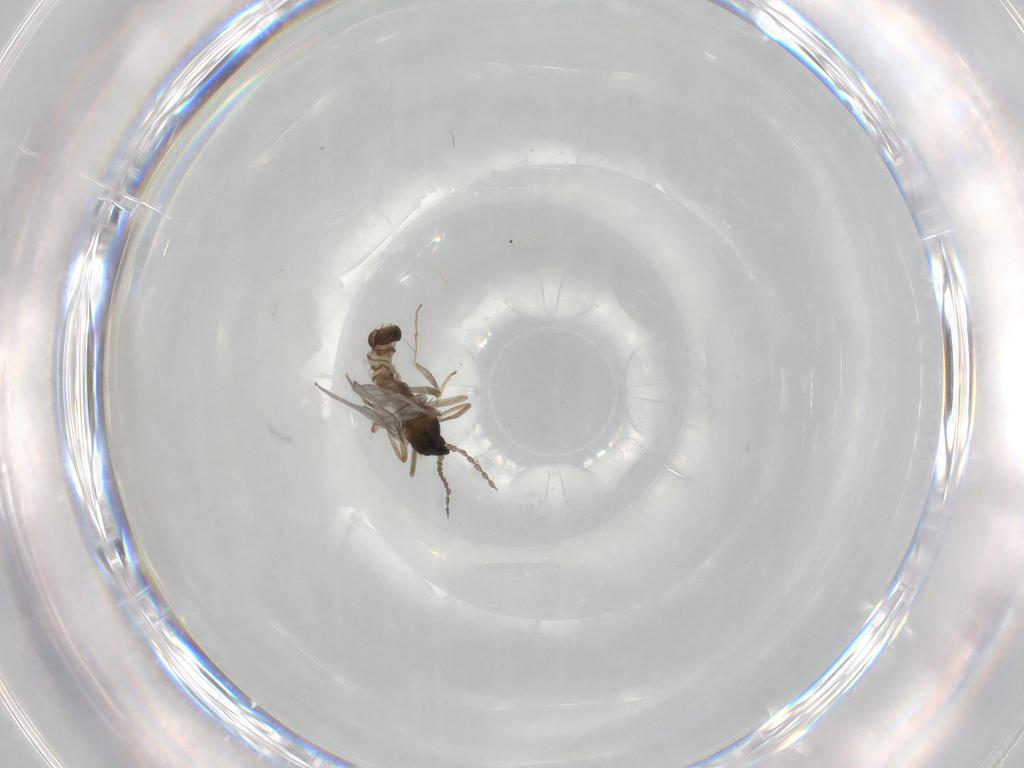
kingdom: Animalia
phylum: Arthropoda
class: Insecta
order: Diptera
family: Cecidomyiidae
